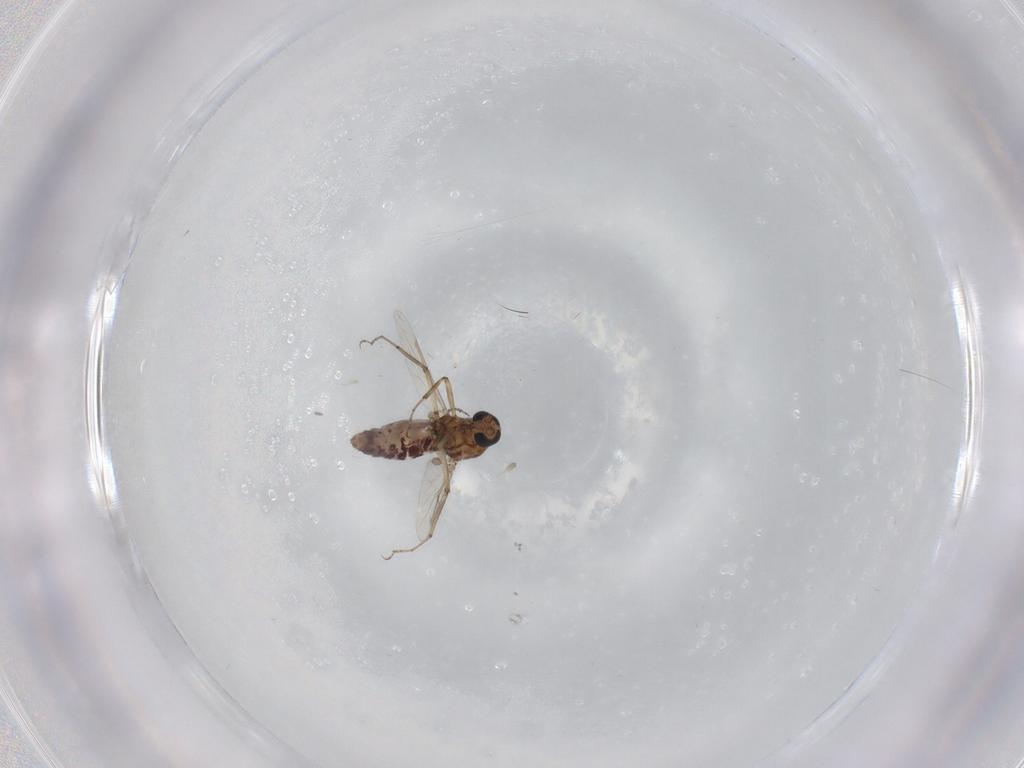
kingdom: Animalia
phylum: Arthropoda
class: Insecta
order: Diptera
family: Ceratopogonidae
